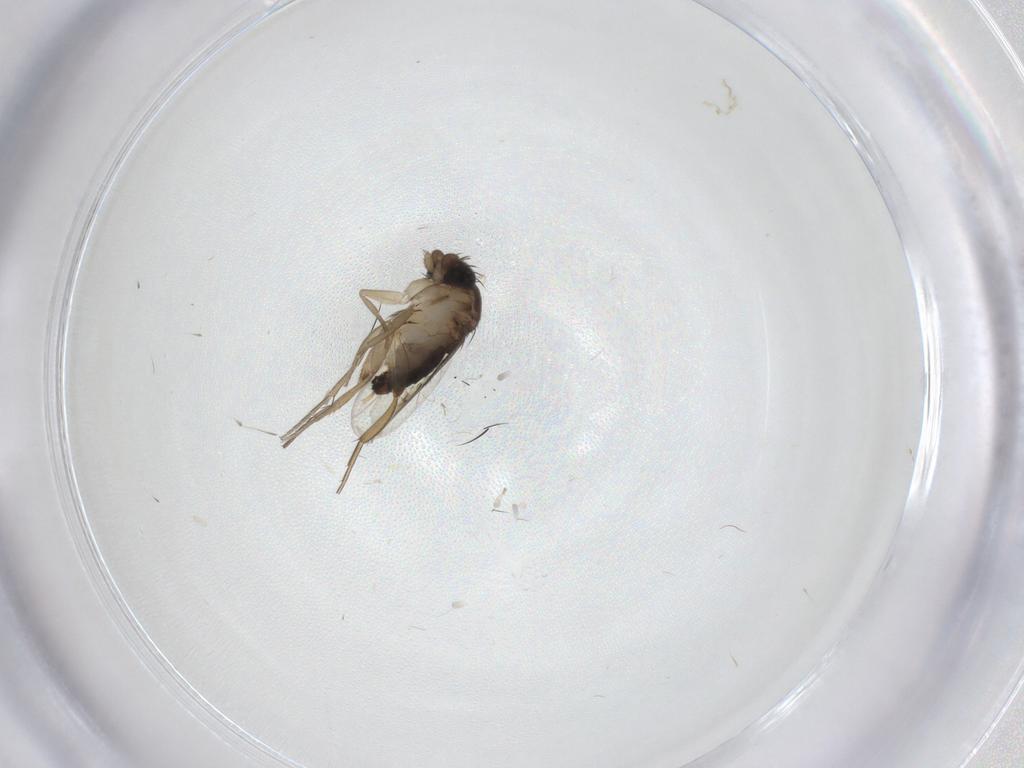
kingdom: Animalia
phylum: Arthropoda
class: Insecta
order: Diptera
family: Phoridae
